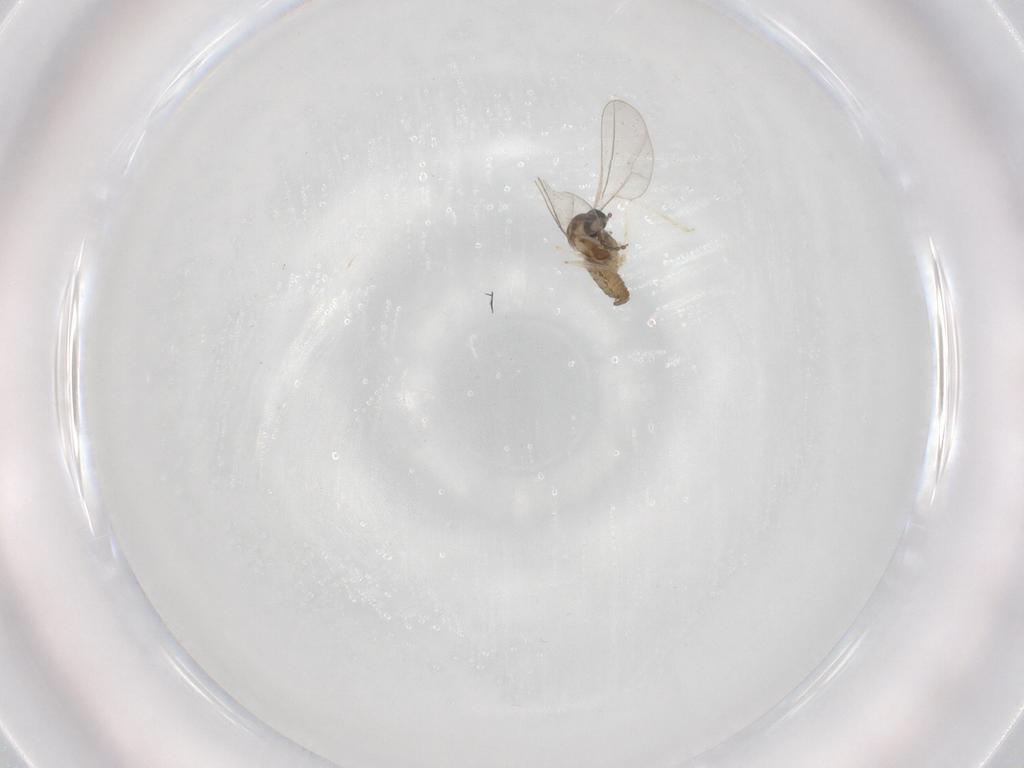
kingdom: Animalia
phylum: Arthropoda
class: Insecta
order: Diptera
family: Cecidomyiidae
